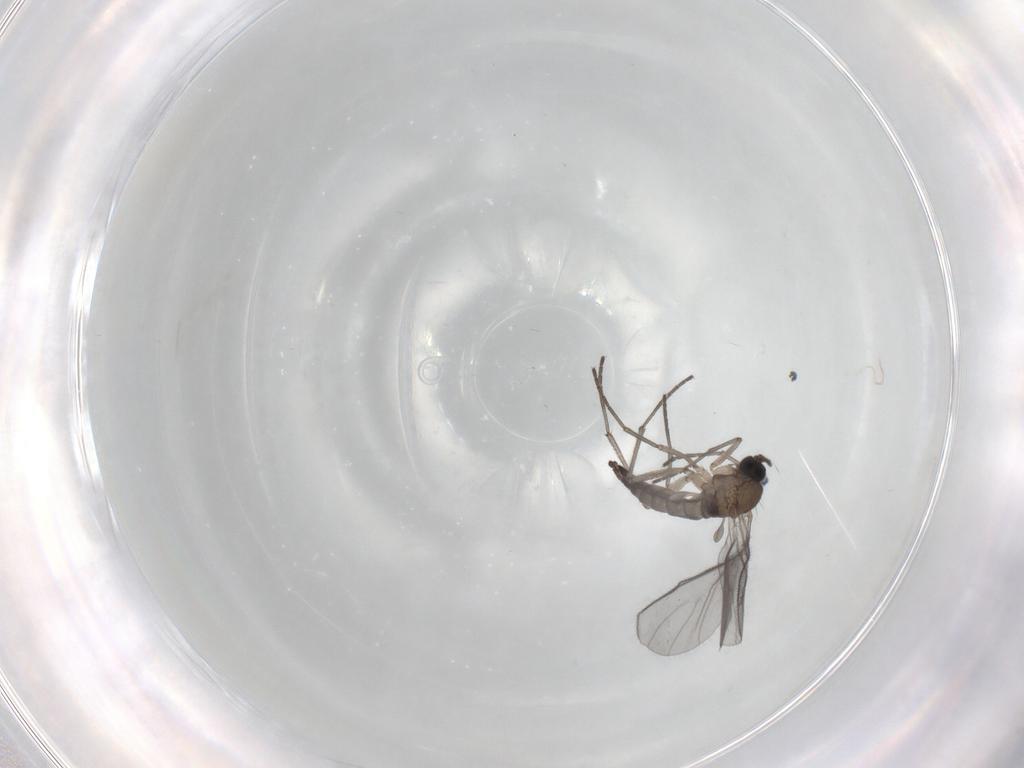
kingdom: Animalia
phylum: Arthropoda
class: Insecta
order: Diptera
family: Sciaridae
